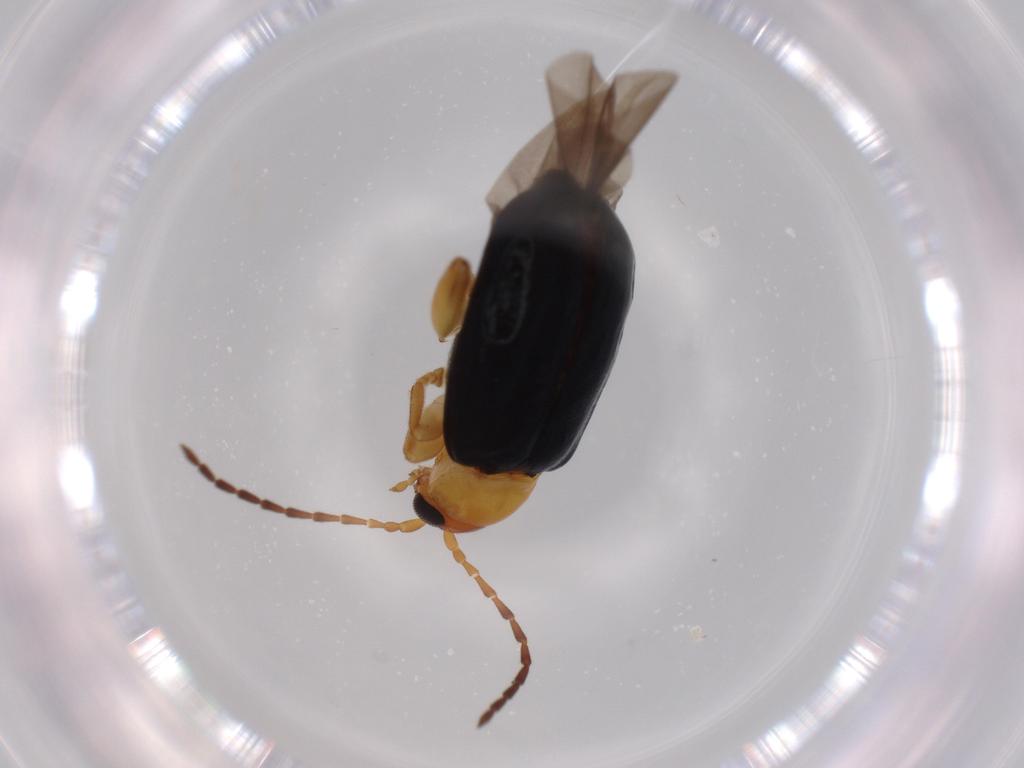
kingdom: Animalia
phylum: Arthropoda
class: Insecta
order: Coleoptera
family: Chrysomelidae
